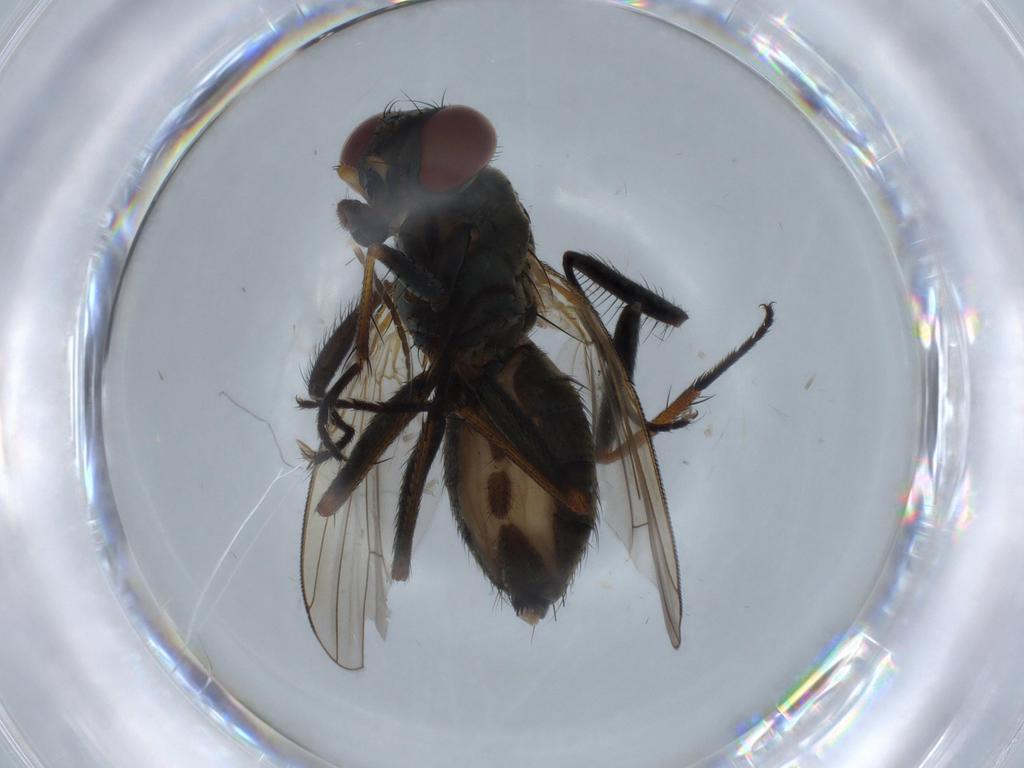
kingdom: Animalia
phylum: Arthropoda
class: Insecta
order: Diptera
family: Muscidae
